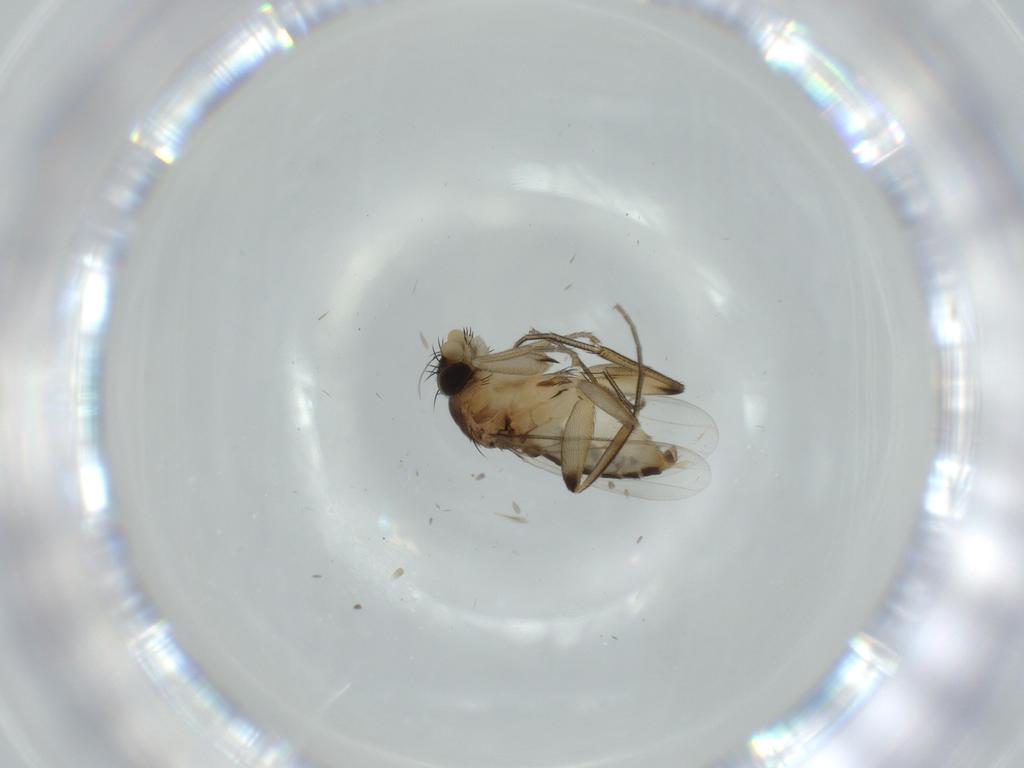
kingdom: Animalia
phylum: Arthropoda
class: Insecta
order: Diptera
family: Phoridae
